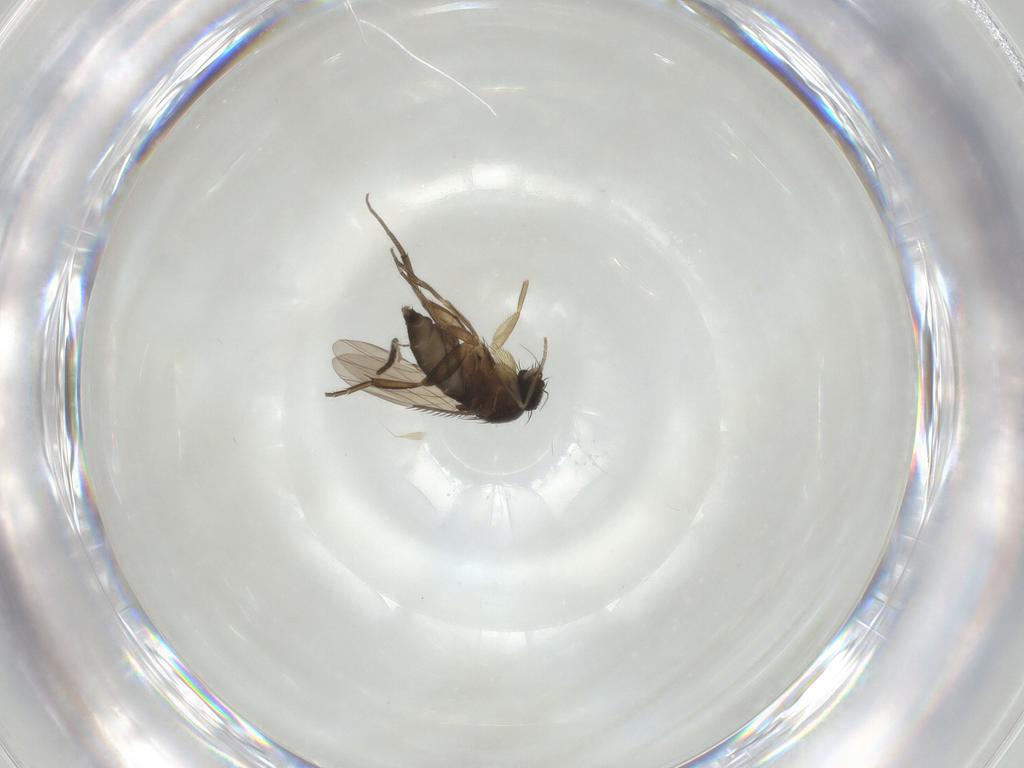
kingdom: Animalia
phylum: Arthropoda
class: Insecta
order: Diptera
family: Phoridae
